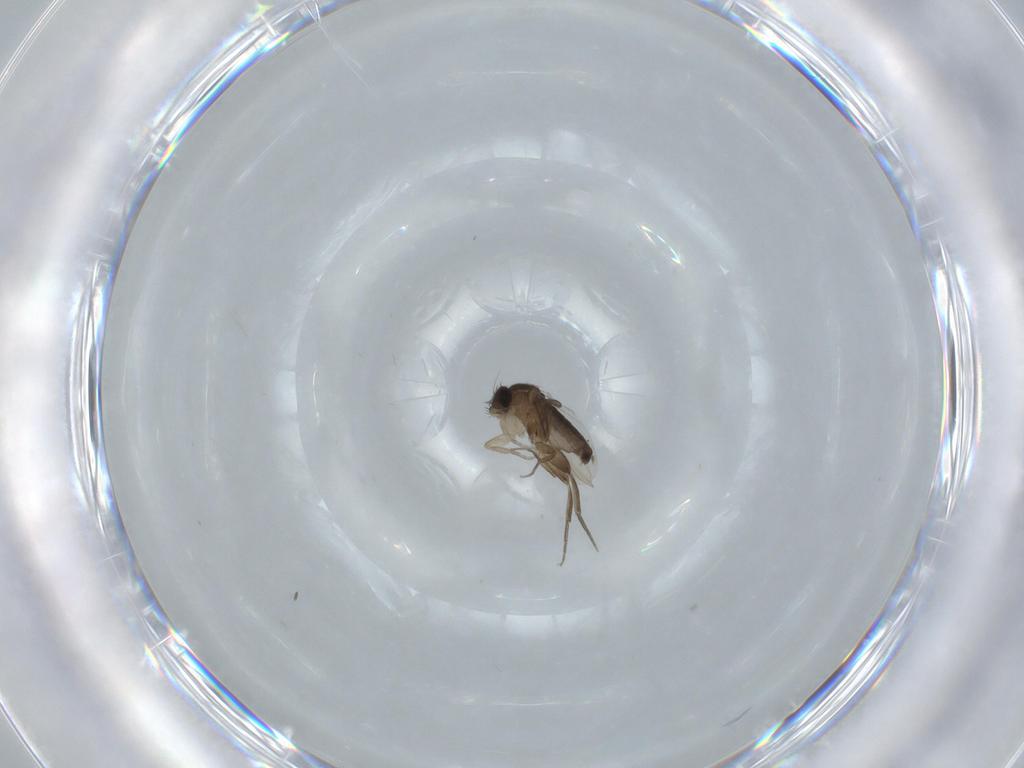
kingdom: Animalia
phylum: Arthropoda
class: Insecta
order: Diptera
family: Phoridae
